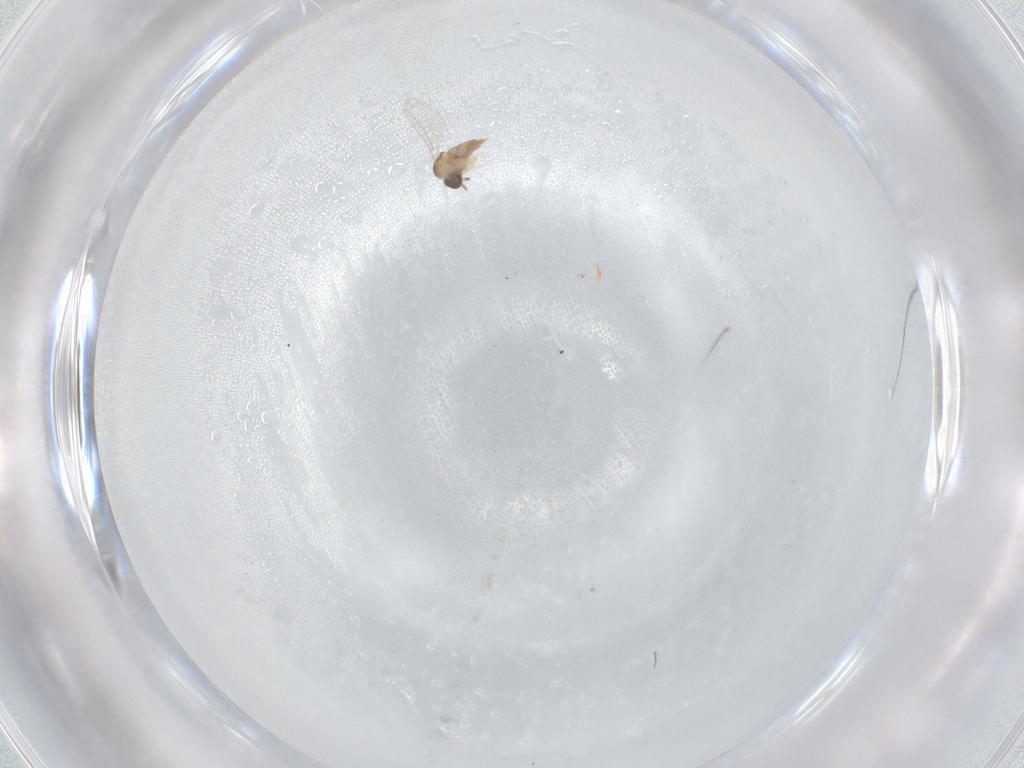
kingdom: Animalia
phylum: Arthropoda
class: Insecta
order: Diptera
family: Cecidomyiidae
